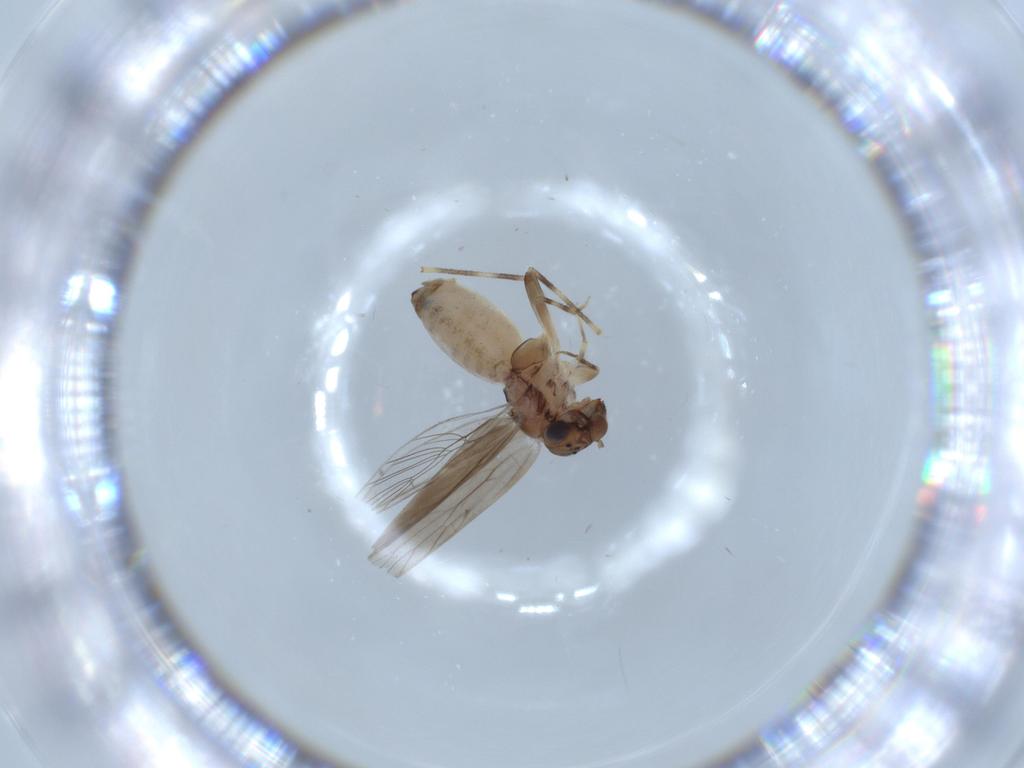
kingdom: Animalia
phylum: Arthropoda
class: Insecta
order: Psocodea
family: Lepidopsocidae
